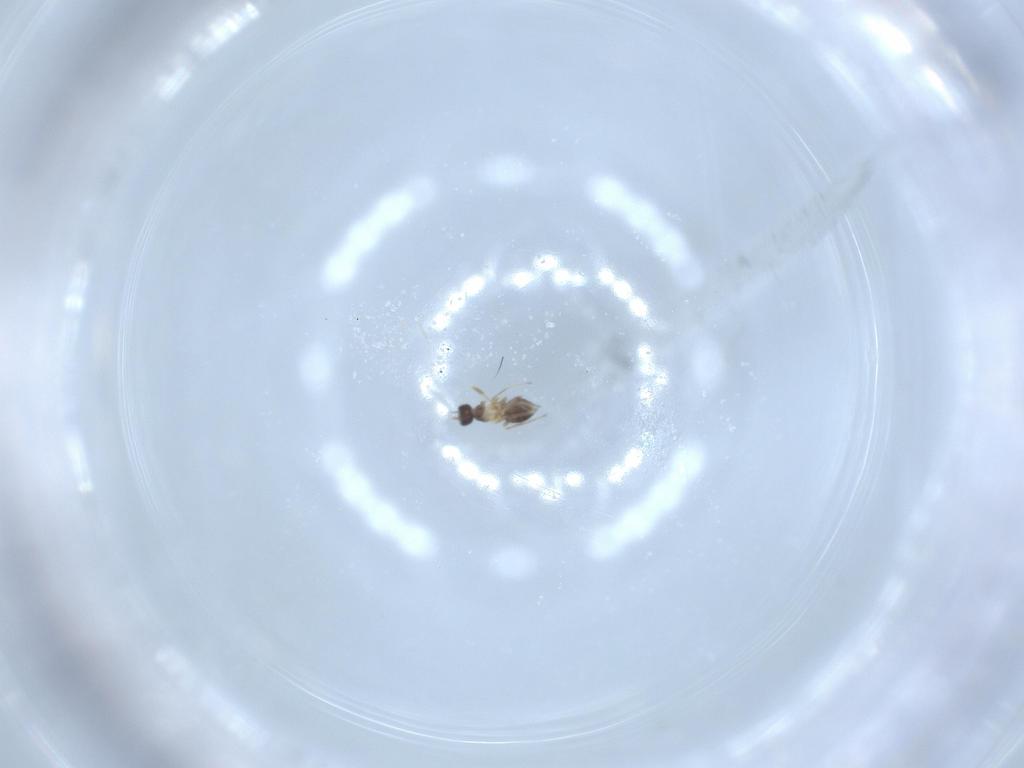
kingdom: Animalia
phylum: Arthropoda
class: Insecta
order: Hymenoptera
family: Mymaridae
